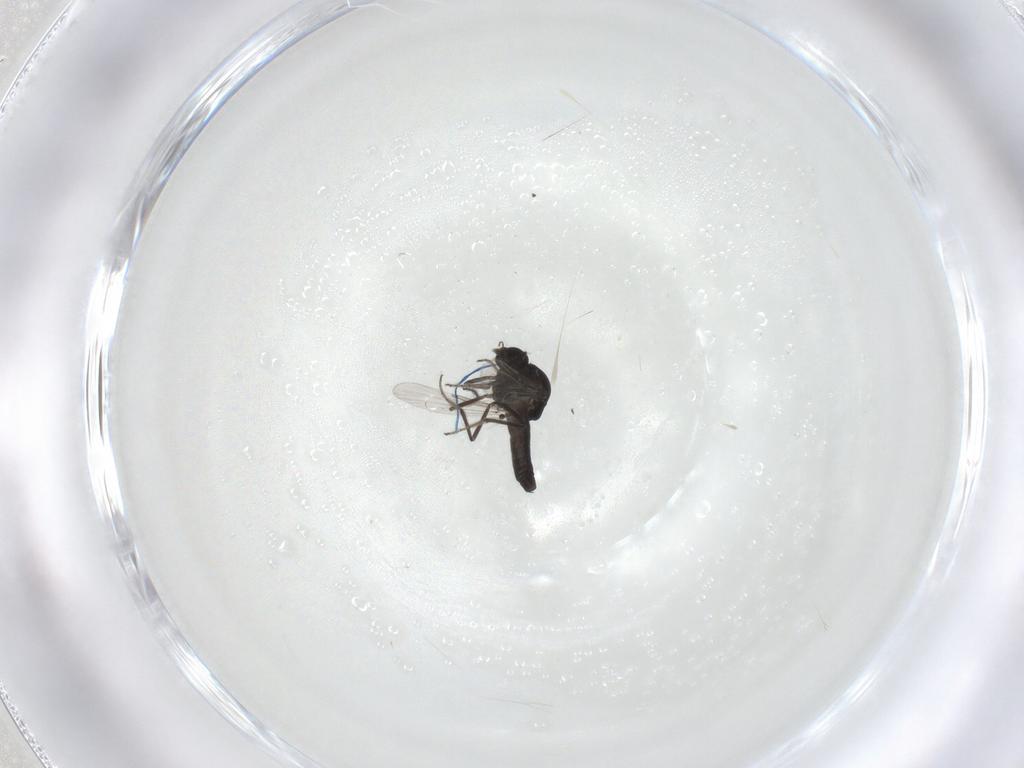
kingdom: Animalia
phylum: Arthropoda
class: Insecta
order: Diptera
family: Ceratopogonidae
